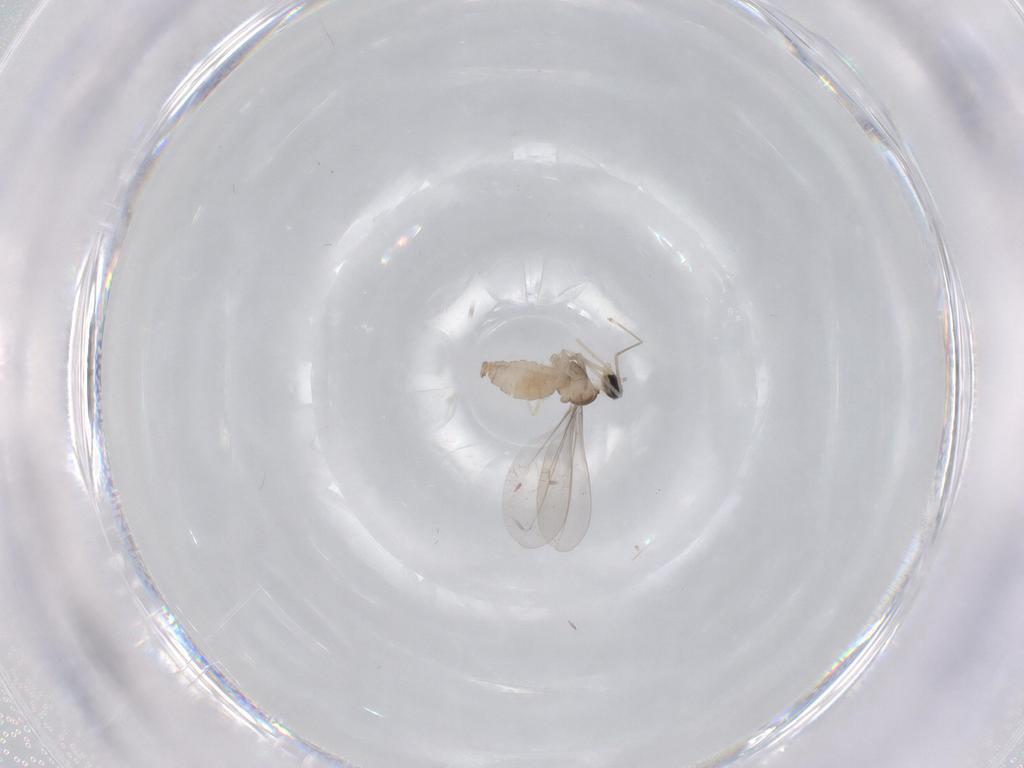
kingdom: Animalia
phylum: Arthropoda
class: Insecta
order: Diptera
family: Cecidomyiidae
